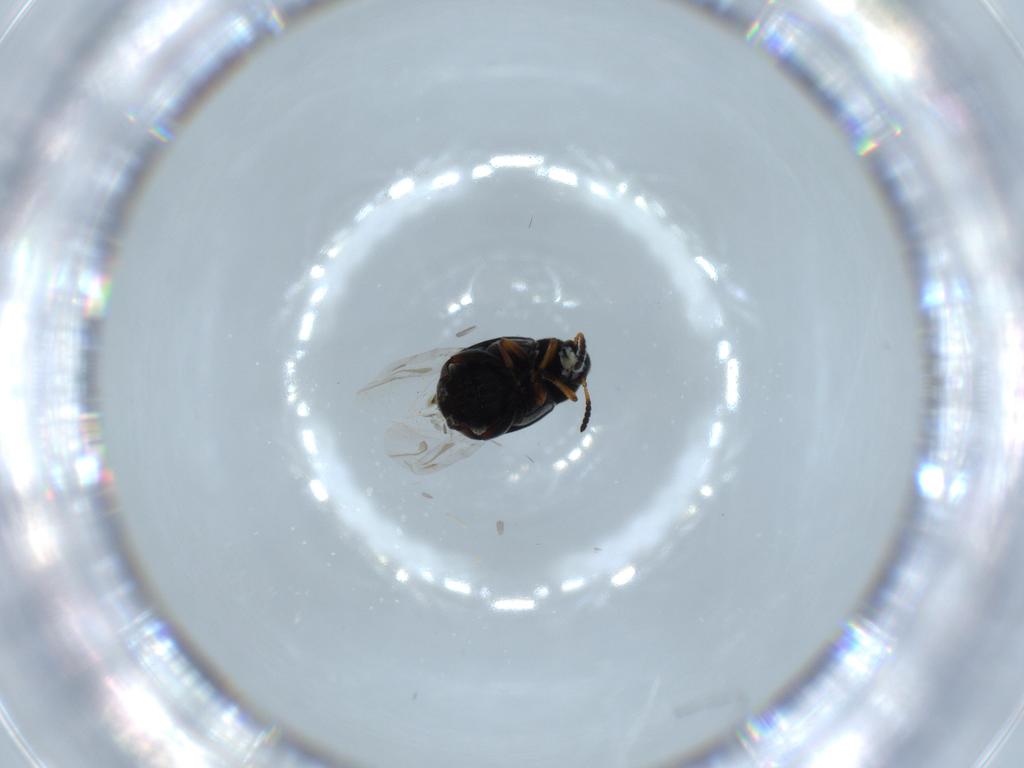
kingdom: Animalia
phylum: Arthropoda
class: Insecta
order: Coleoptera
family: Chrysomelidae
